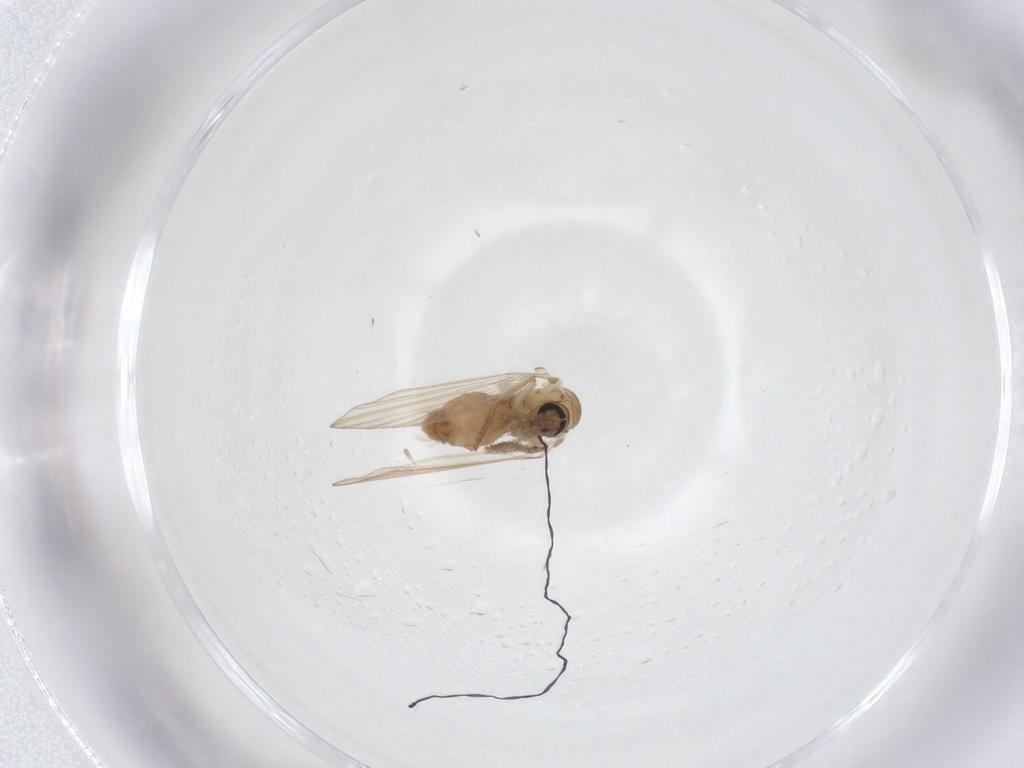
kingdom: Animalia
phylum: Arthropoda
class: Insecta
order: Diptera
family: Psychodidae
